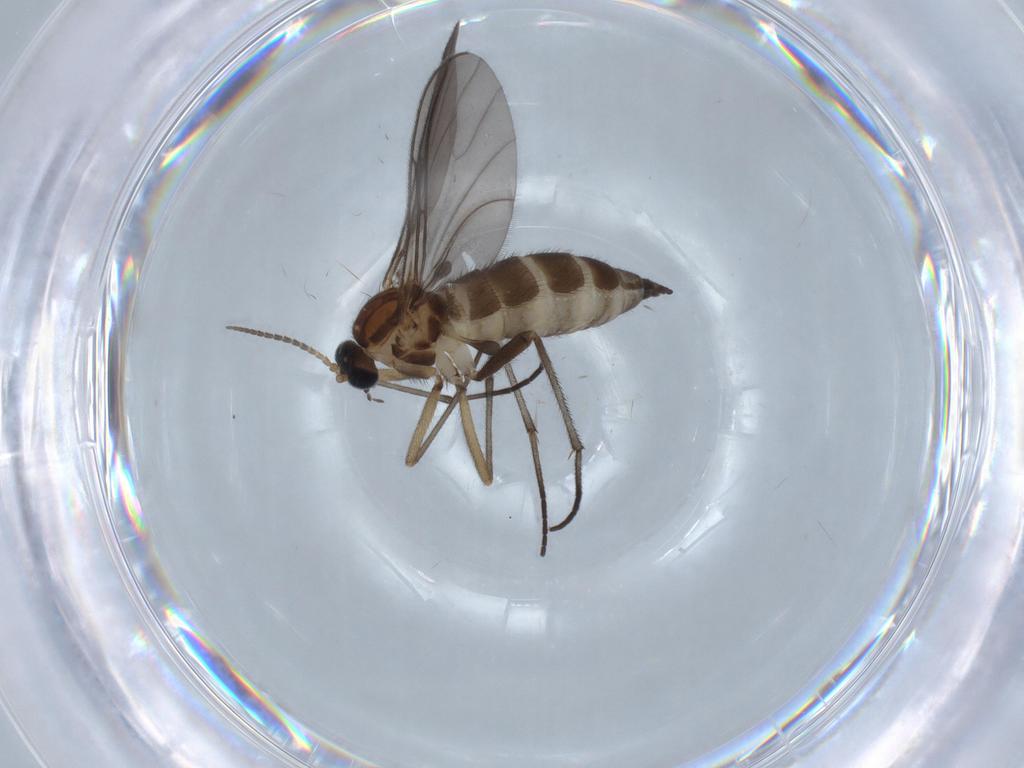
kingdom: Animalia
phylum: Arthropoda
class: Insecta
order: Diptera
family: Sciaridae
